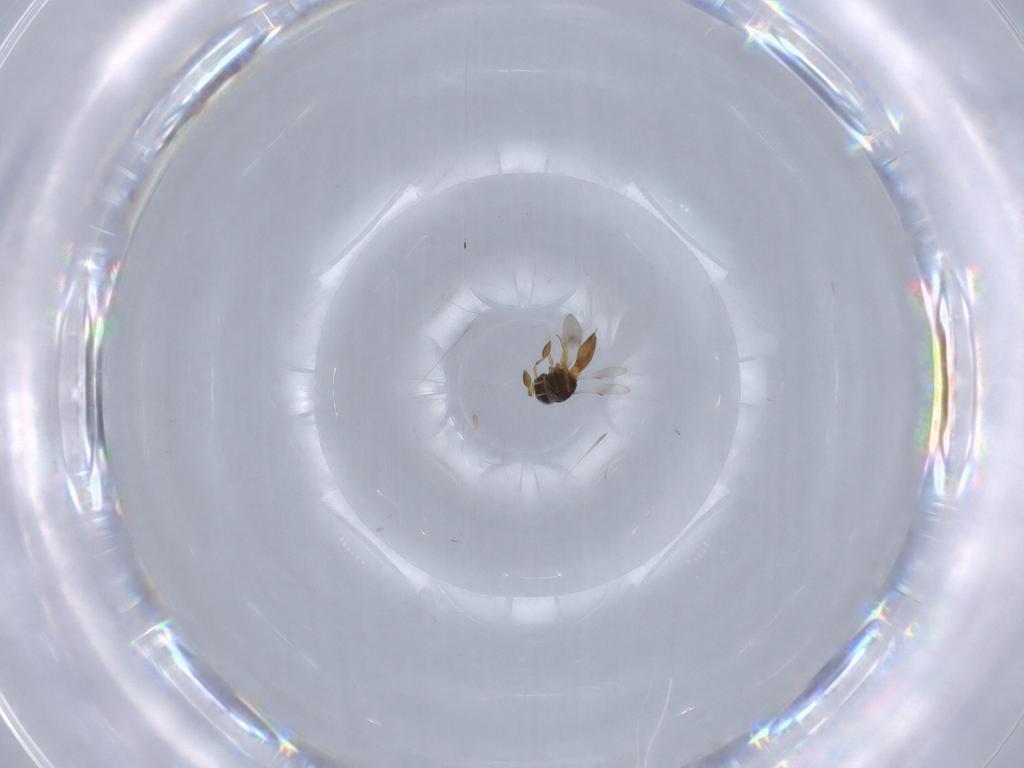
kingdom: Animalia
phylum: Arthropoda
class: Insecta
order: Hymenoptera
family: Scelionidae
